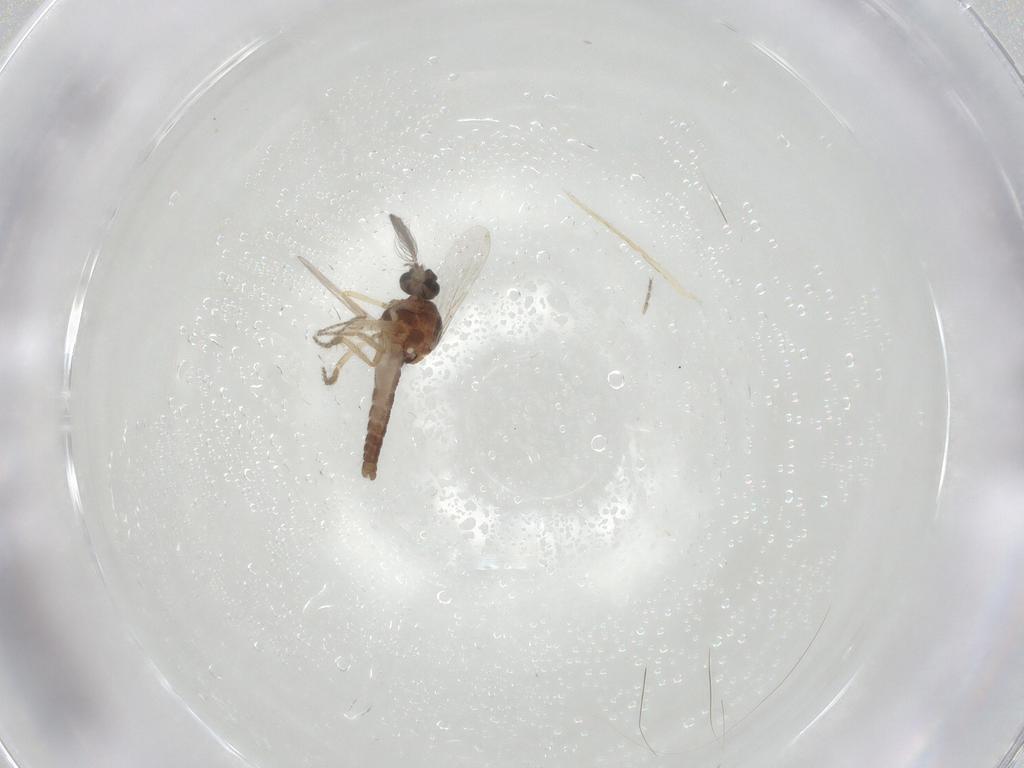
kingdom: Animalia
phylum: Arthropoda
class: Insecta
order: Diptera
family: Ceratopogonidae
